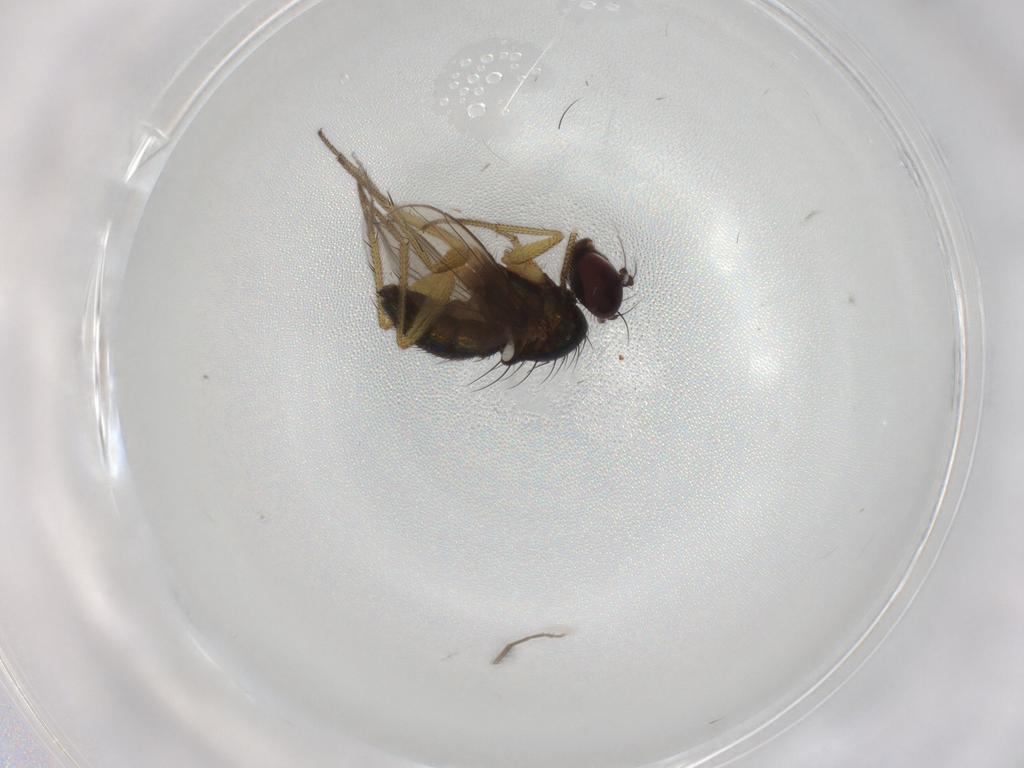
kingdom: Animalia
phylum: Arthropoda
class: Insecta
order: Diptera
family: Chironomidae
